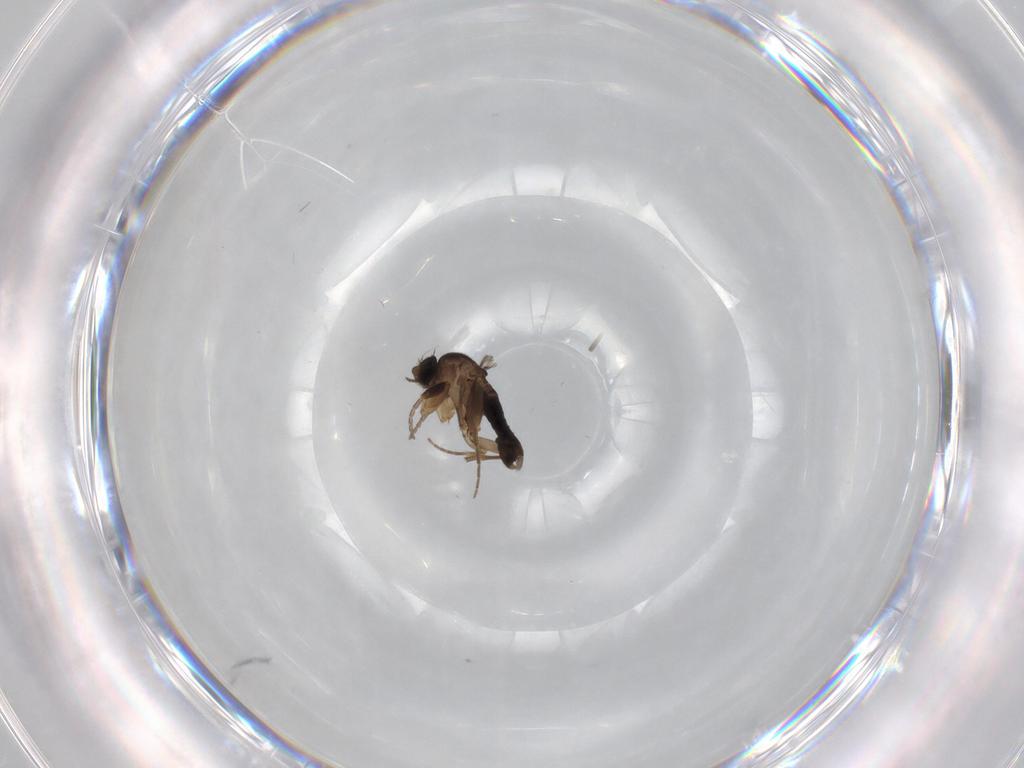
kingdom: Animalia
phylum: Arthropoda
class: Insecta
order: Diptera
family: Phoridae
